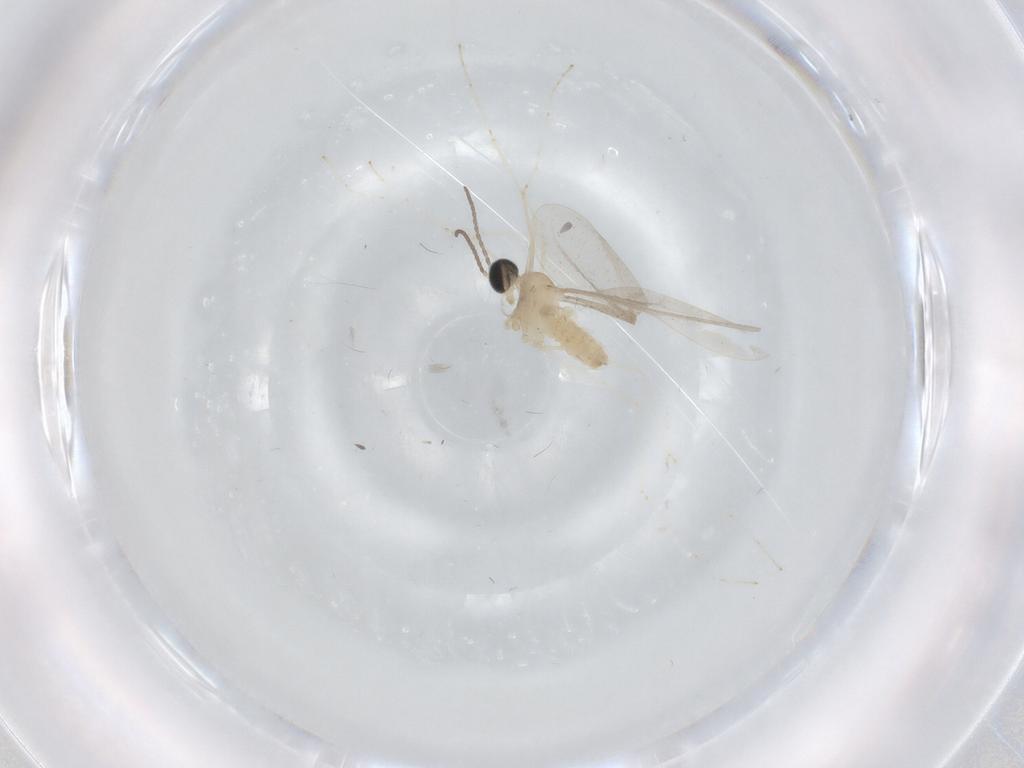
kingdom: Animalia
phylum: Arthropoda
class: Insecta
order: Diptera
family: Cecidomyiidae
